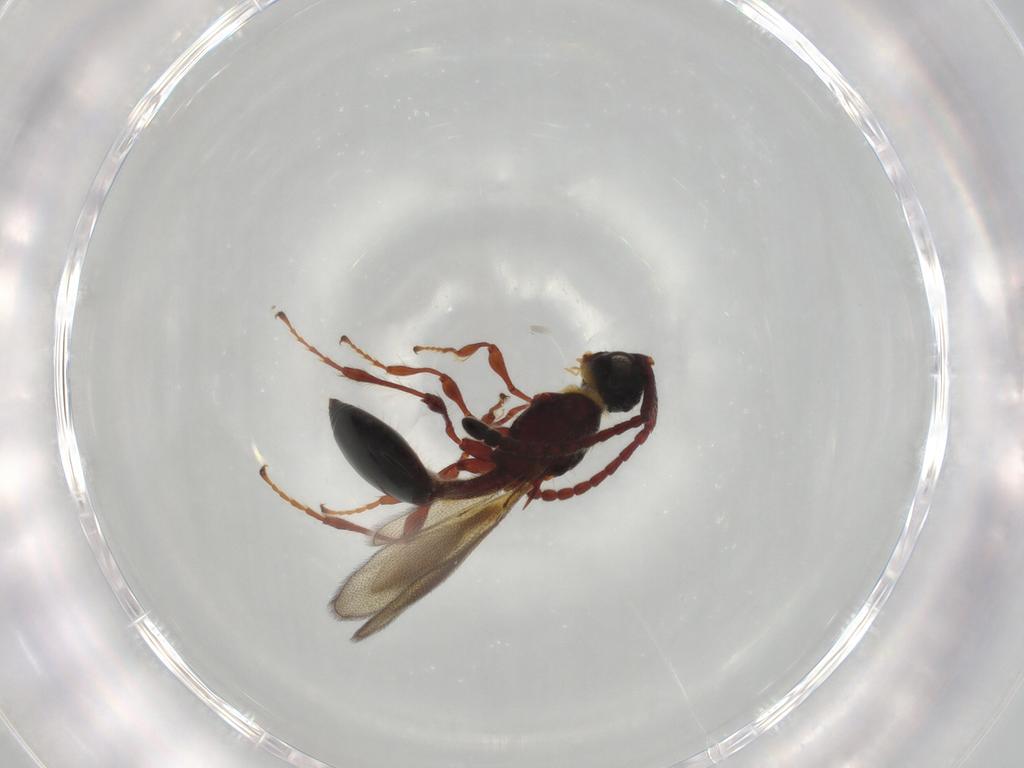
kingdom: Animalia
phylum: Arthropoda
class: Insecta
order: Hymenoptera
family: Diapriidae
